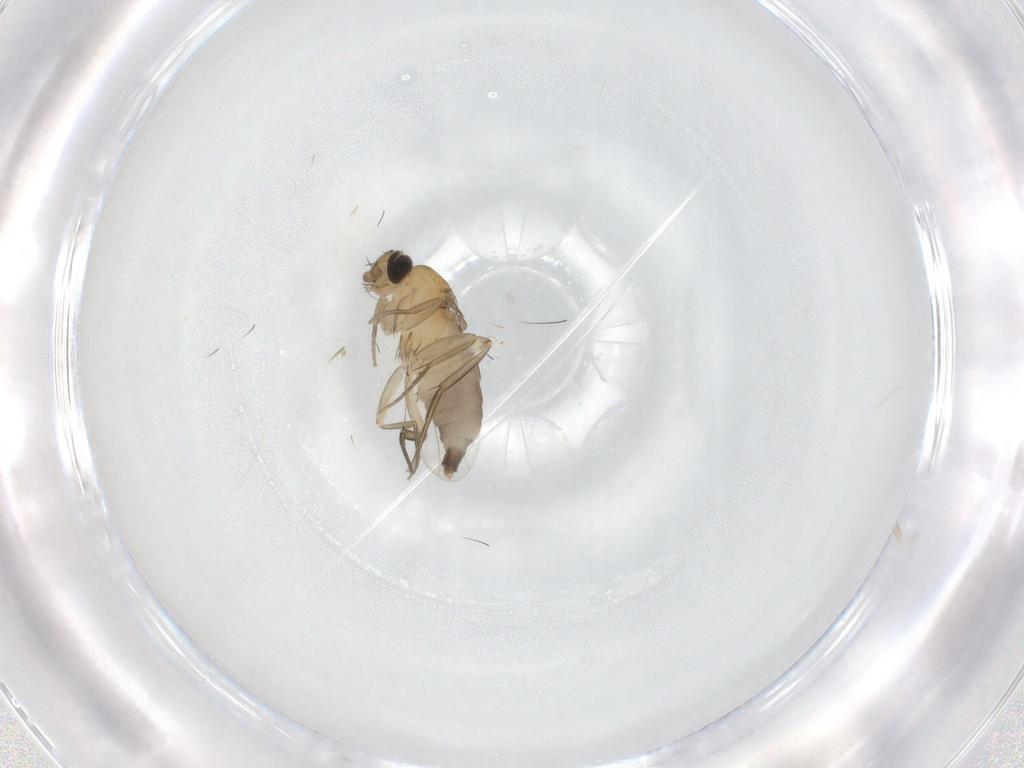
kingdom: Animalia
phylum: Arthropoda
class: Insecta
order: Diptera
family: Phoridae
